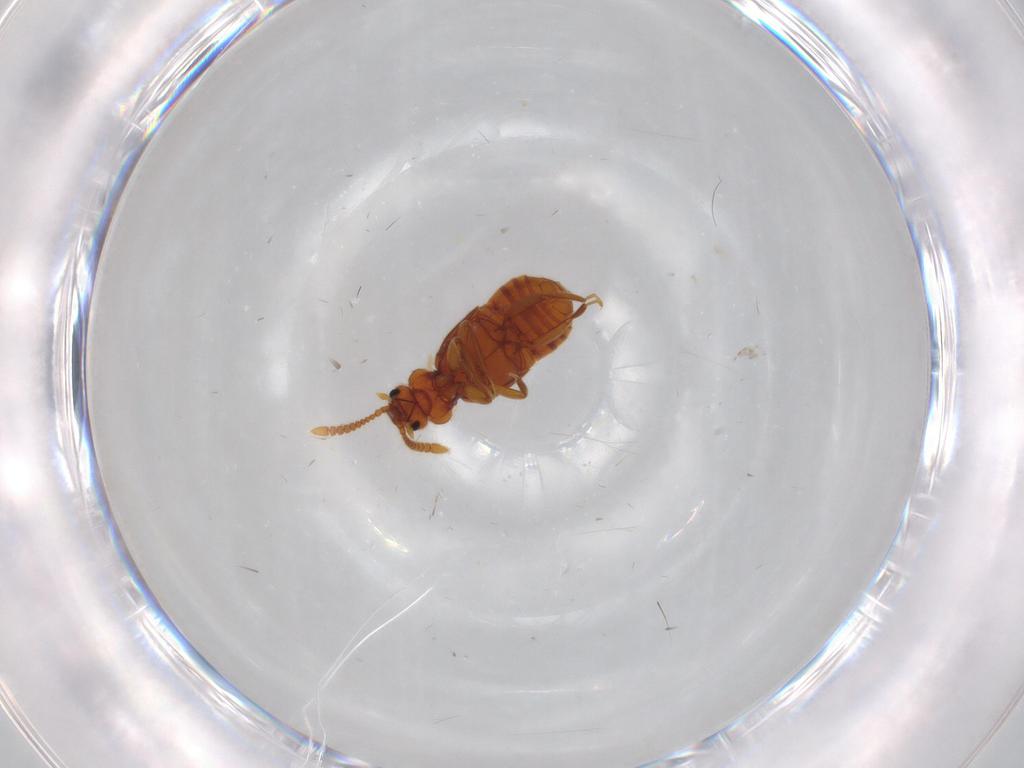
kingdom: Animalia
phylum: Arthropoda
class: Insecta
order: Coleoptera
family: Staphylinidae
